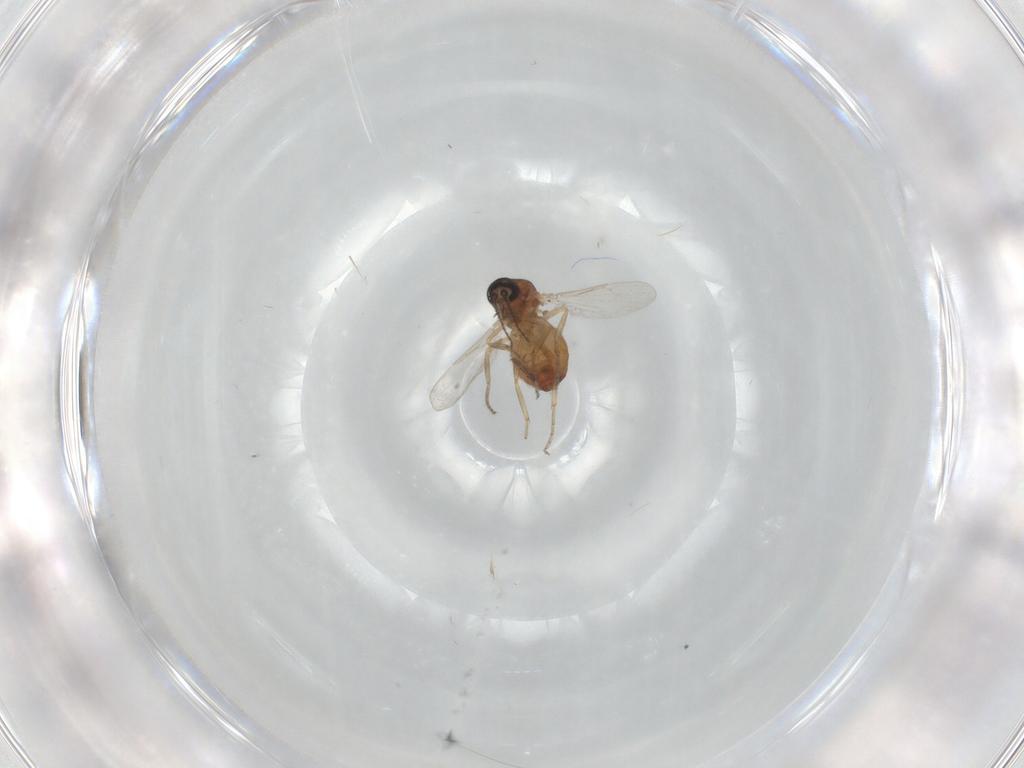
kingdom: Animalia
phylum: Arthropoda
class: Insecta
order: Diptera
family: Ceratopogonidae
